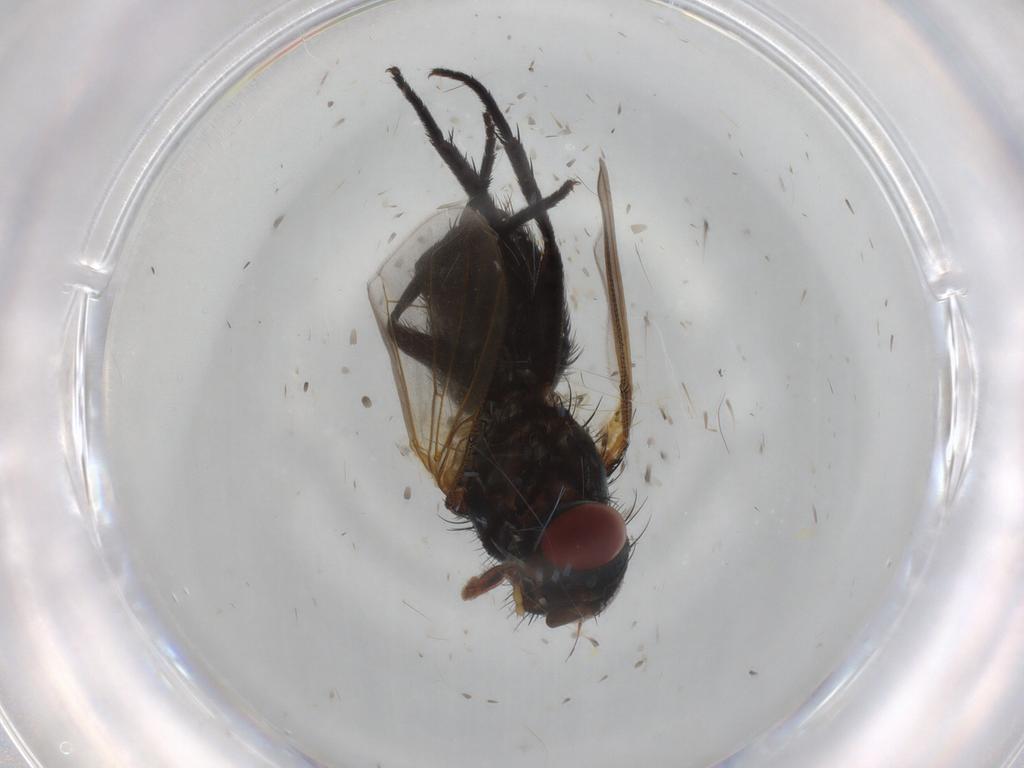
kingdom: Animalia
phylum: Arthropoda
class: Insecta
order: Diptera
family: Tachinidae
